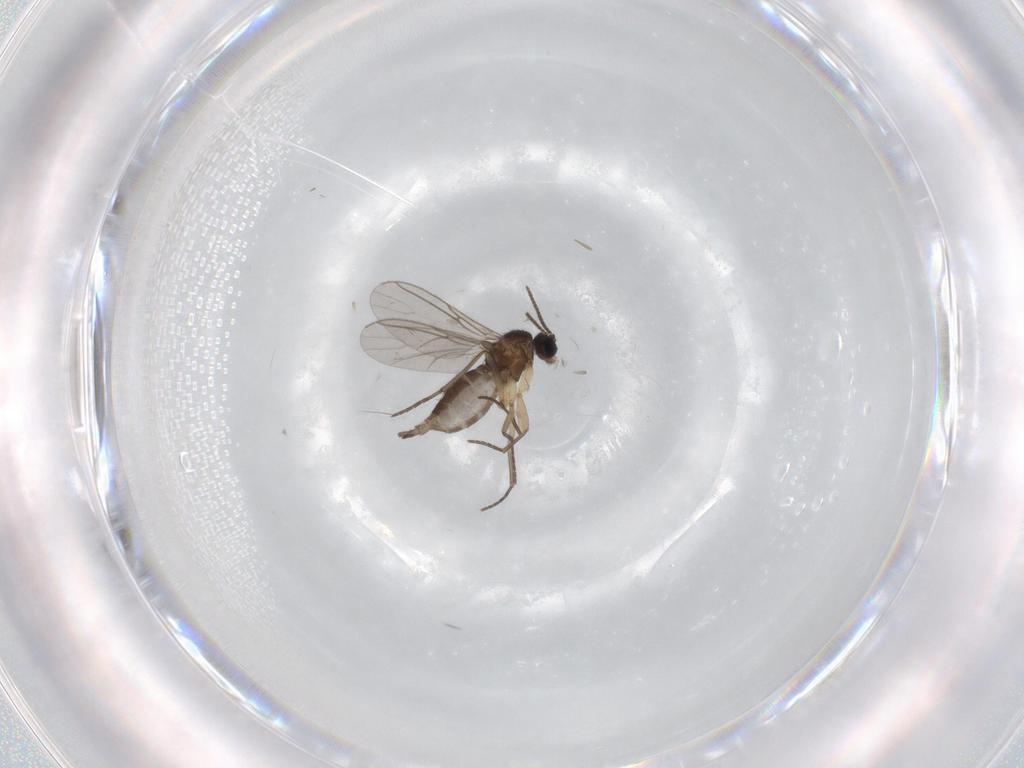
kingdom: Animalia
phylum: Arthropoda
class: Insecta
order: Diptera
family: Sciaridae
